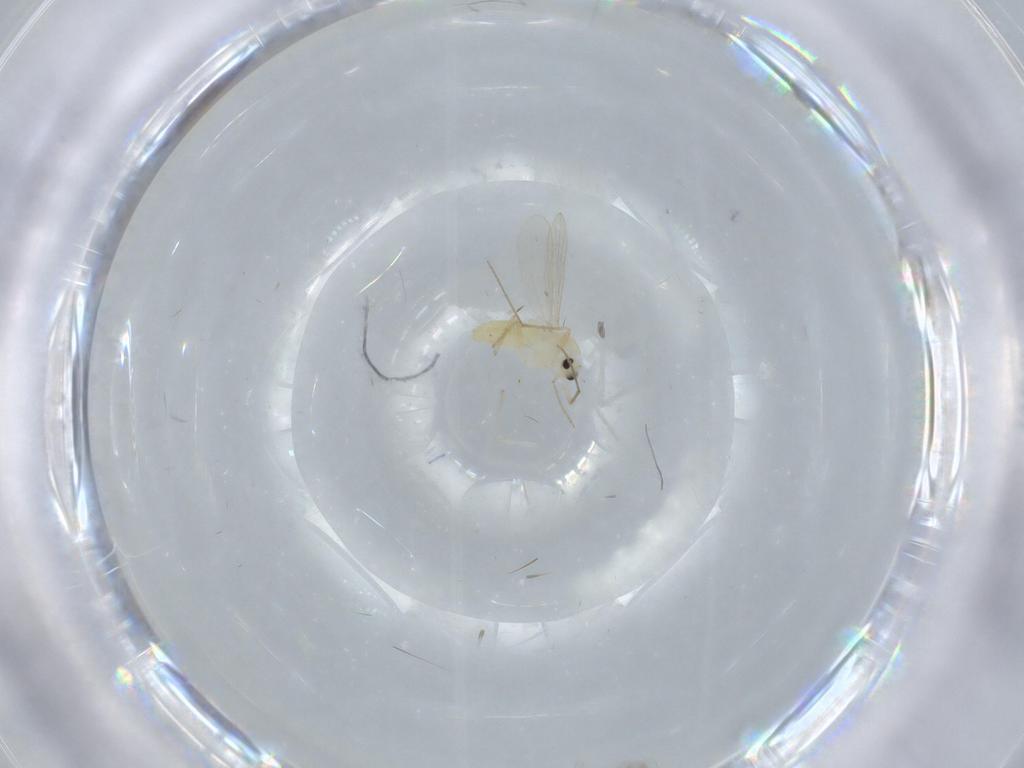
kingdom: Animalia
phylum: Arthropoda
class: Insecta
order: Diptera
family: Chironomidae
